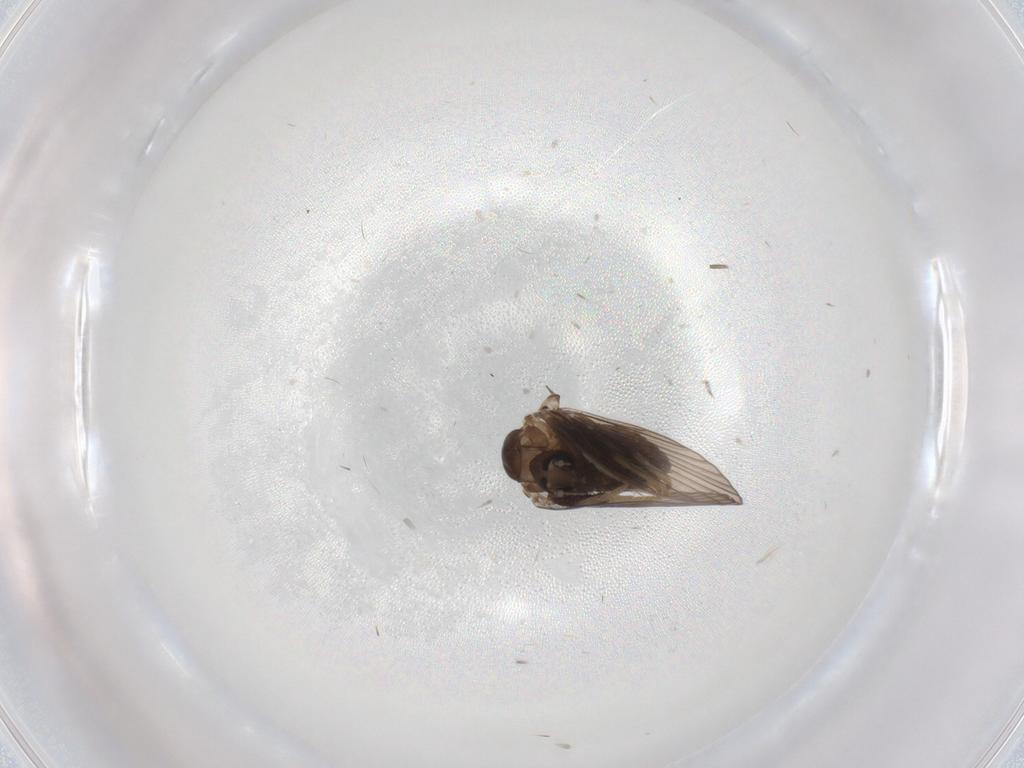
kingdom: Animalia
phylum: Arthropoda
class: Insecta
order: Diptera
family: Psychodidae
